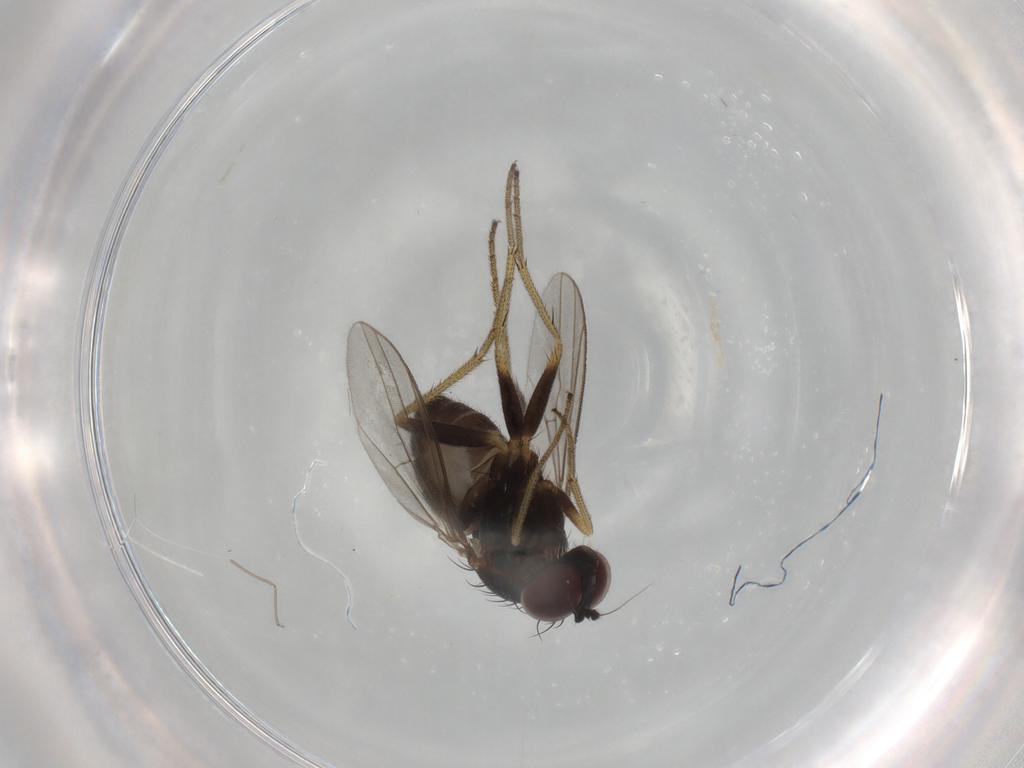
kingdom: Animalia
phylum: Arthropoda
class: Insecta
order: Diptera
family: Cecidomyiidae
